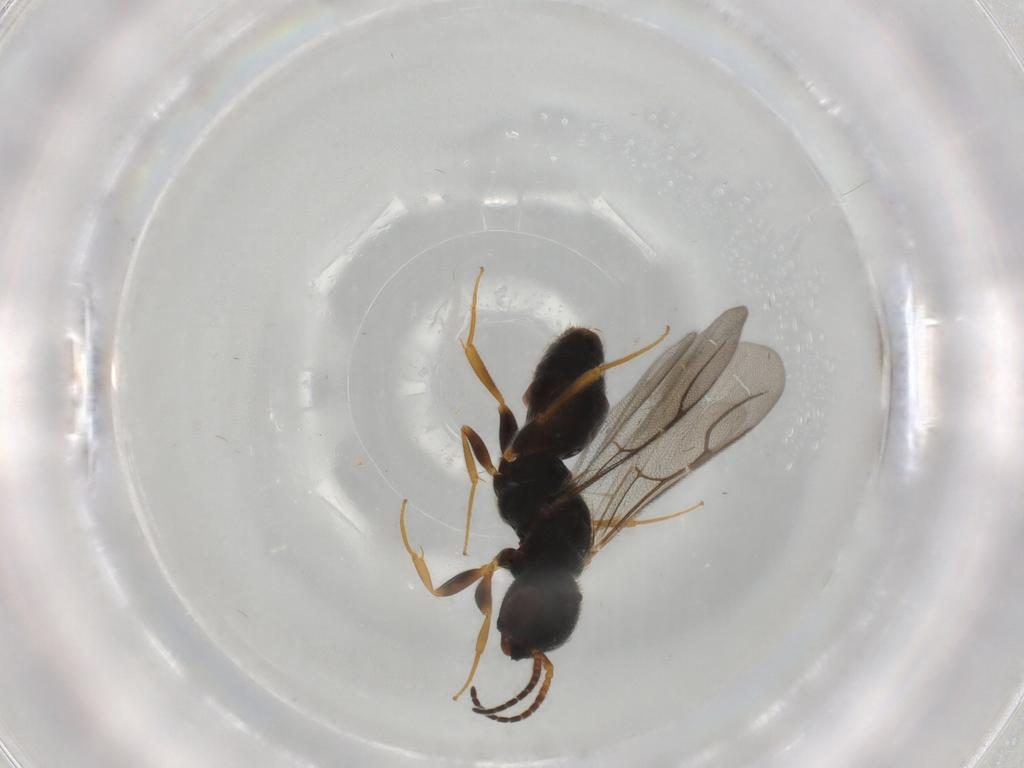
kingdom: Animalia
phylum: Arthropoda
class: Insecta
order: Hymenoptera
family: Bethylidae
